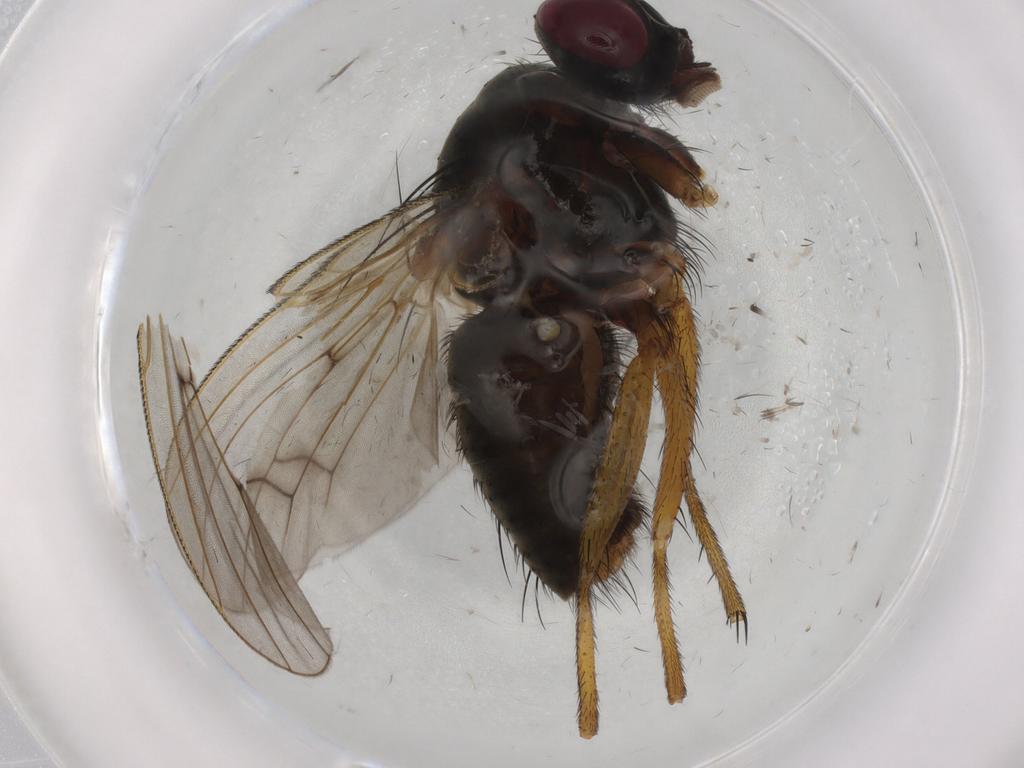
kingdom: Animalia
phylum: Arthropoda
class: Insecta
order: Diptera
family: Muscidae
